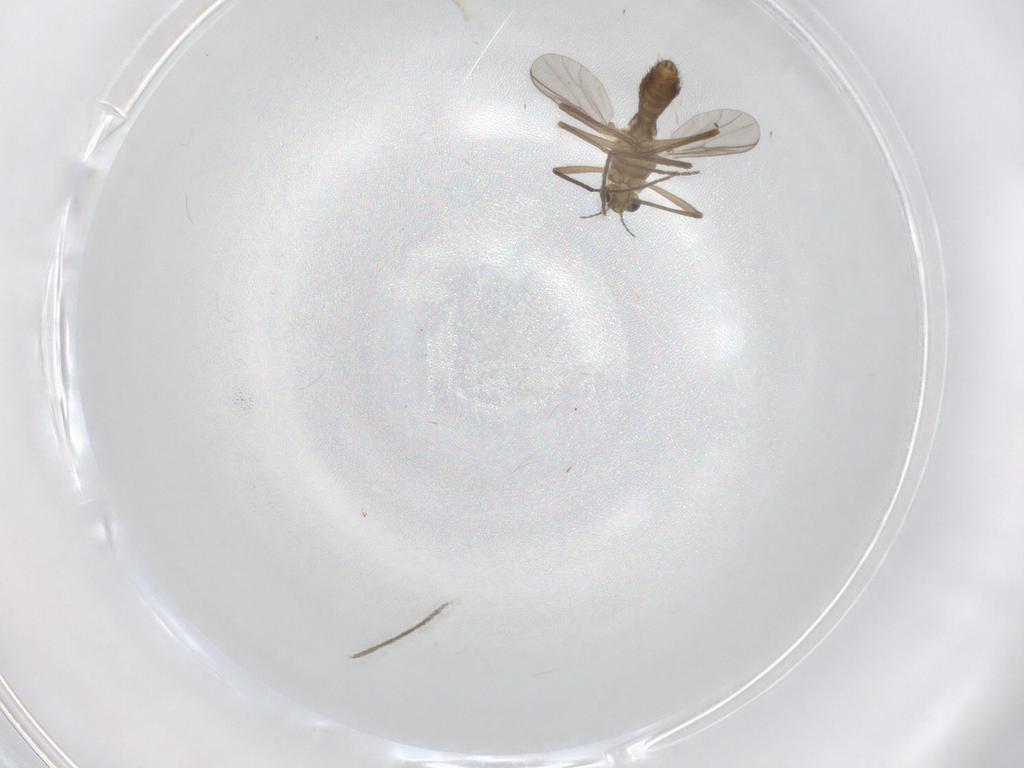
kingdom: Animalia
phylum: Arthropoda
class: Insecta
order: Diptera
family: Chironomidae
